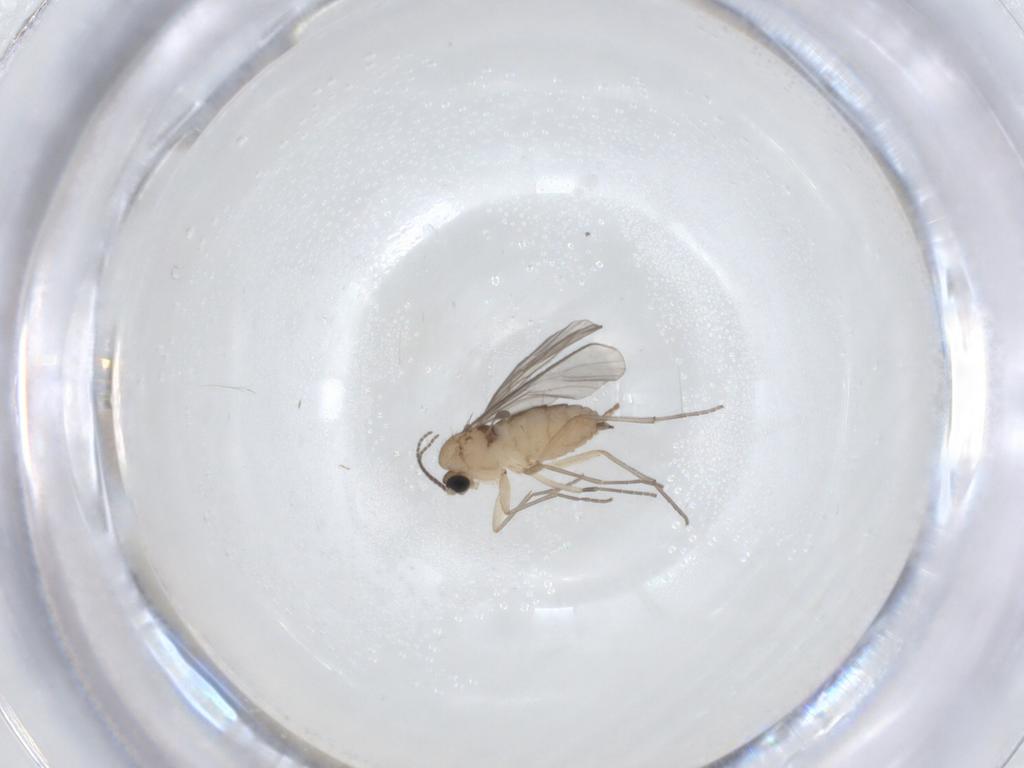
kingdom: Animalia
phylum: Arthropoda
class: Insecta
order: Diptera
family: Sciaridae
